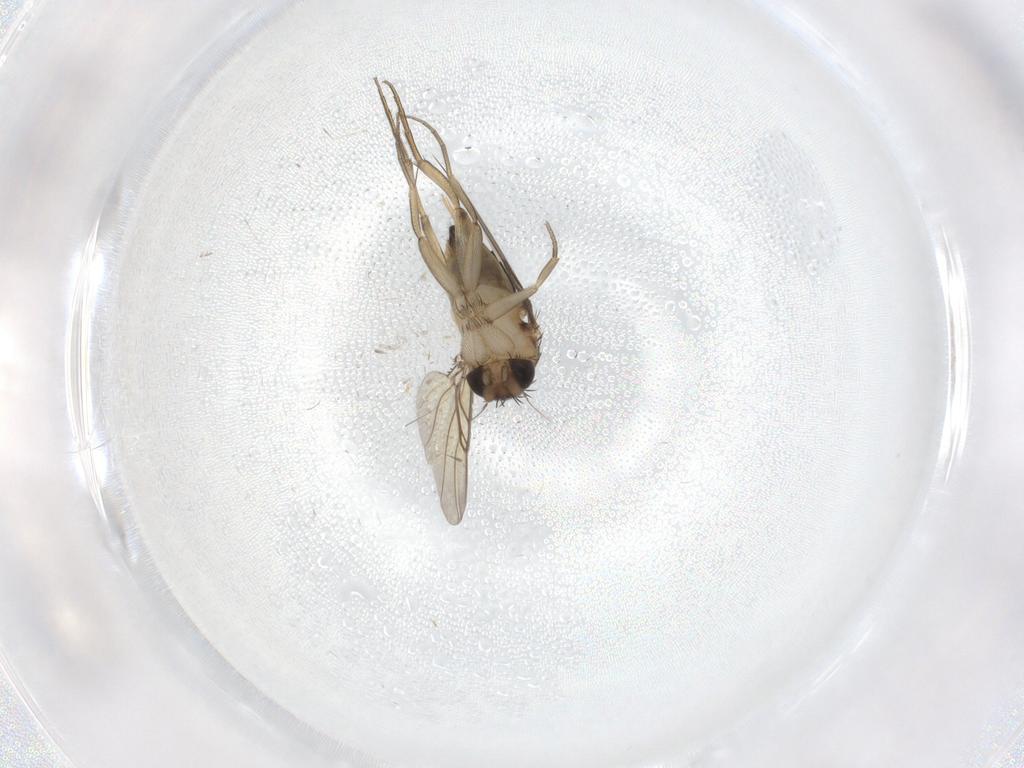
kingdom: Animalia
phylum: Arthropoda
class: Insecta
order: Diptera
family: Phoridae
